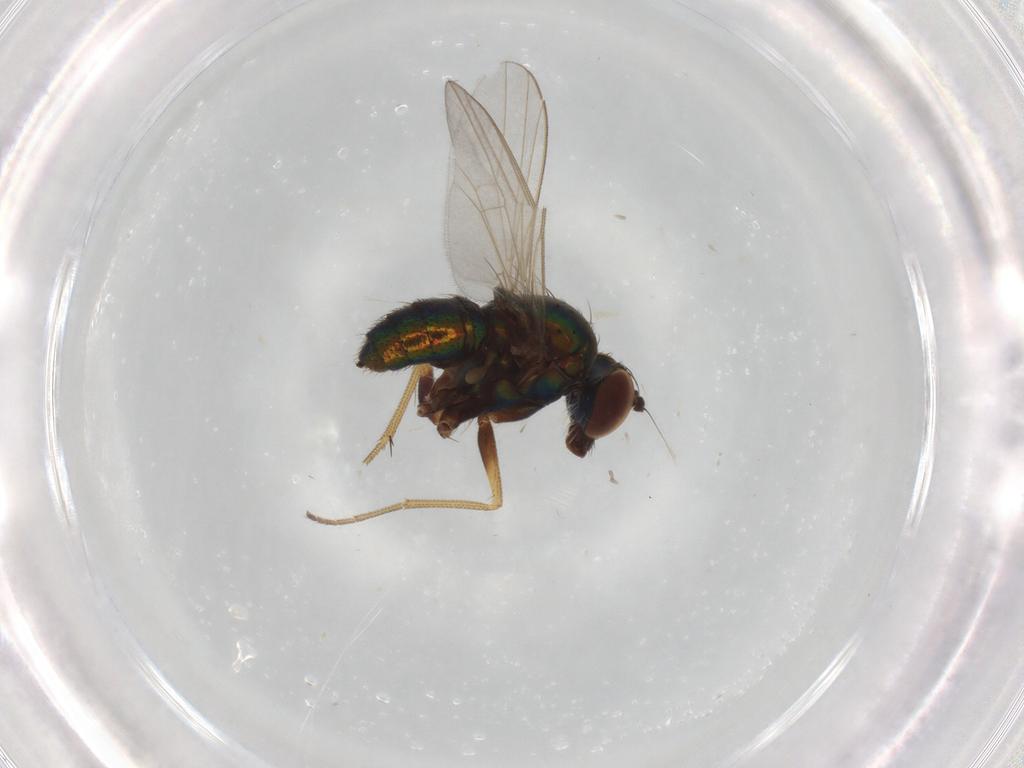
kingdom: Animalia
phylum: Arthropoda
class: Insecta
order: Diptera
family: Dolichopodidae
